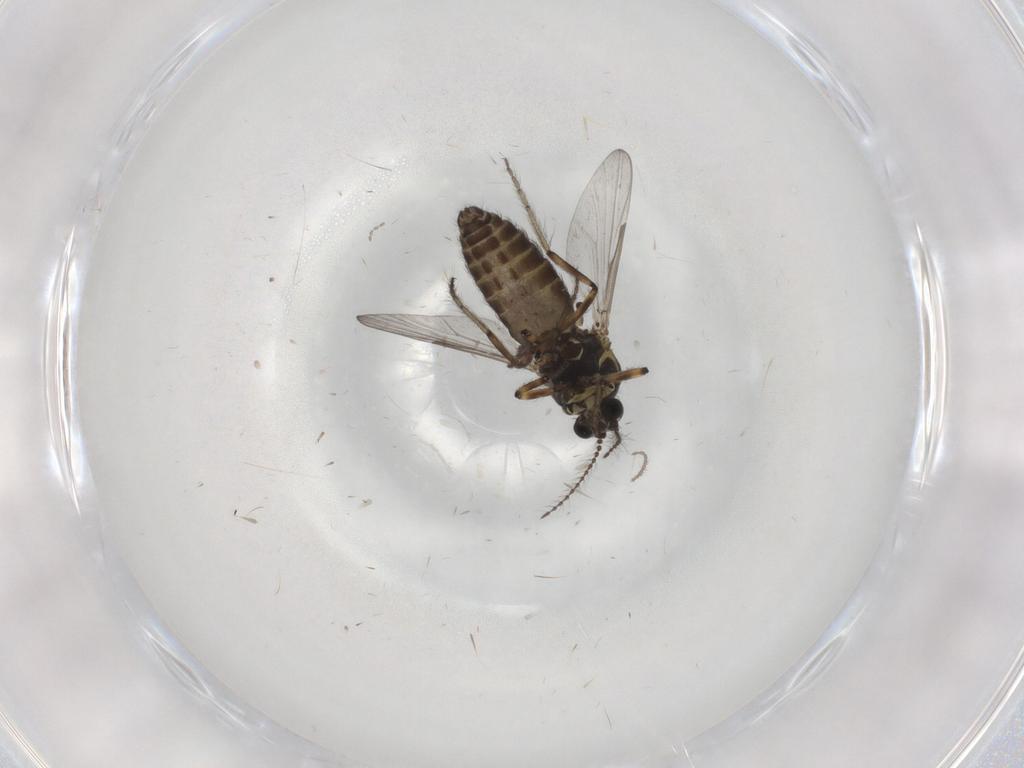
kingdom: Animalia
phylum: Arthropoda
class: Insecta
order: Diptera
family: Ceratopogonidae
